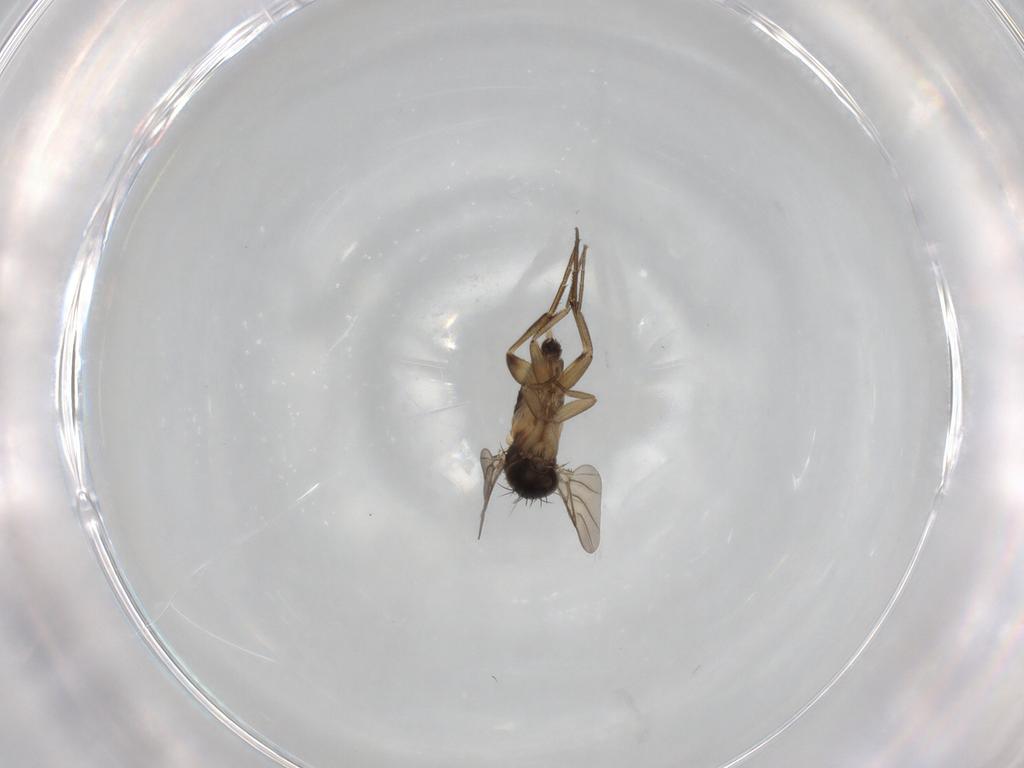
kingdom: Animalia
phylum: Arthropoda
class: Insecta
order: Diptera
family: Phoridae
